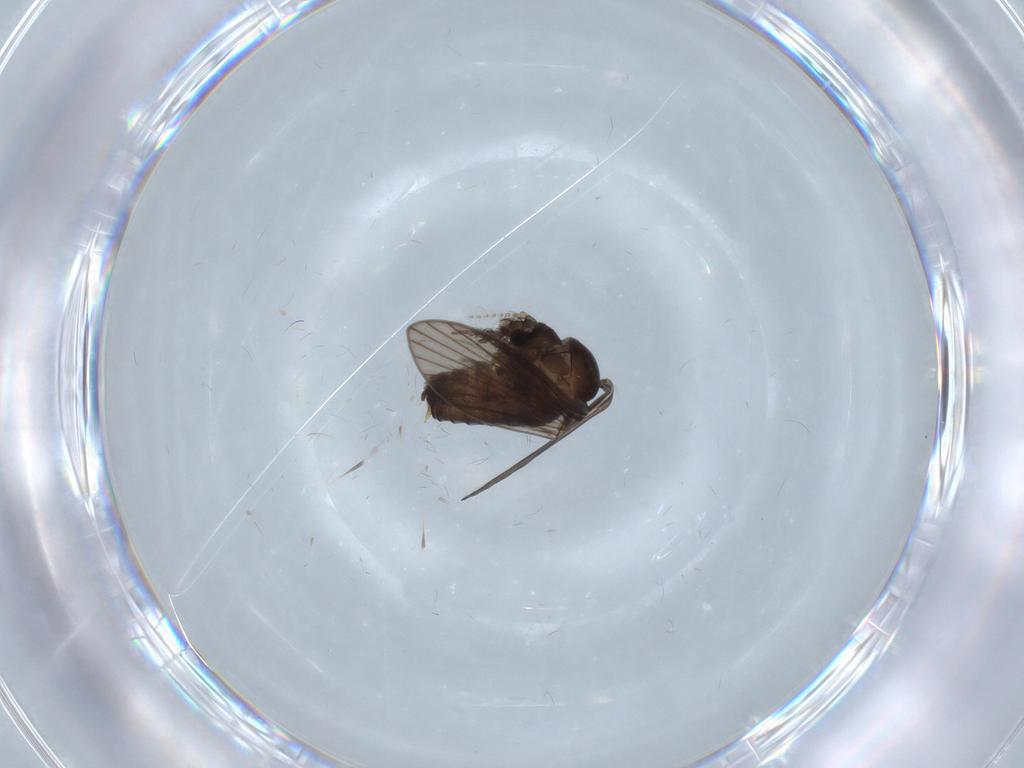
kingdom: Animalia
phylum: Arthropoda
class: Insecta
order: Diptera
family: Psychodidae
